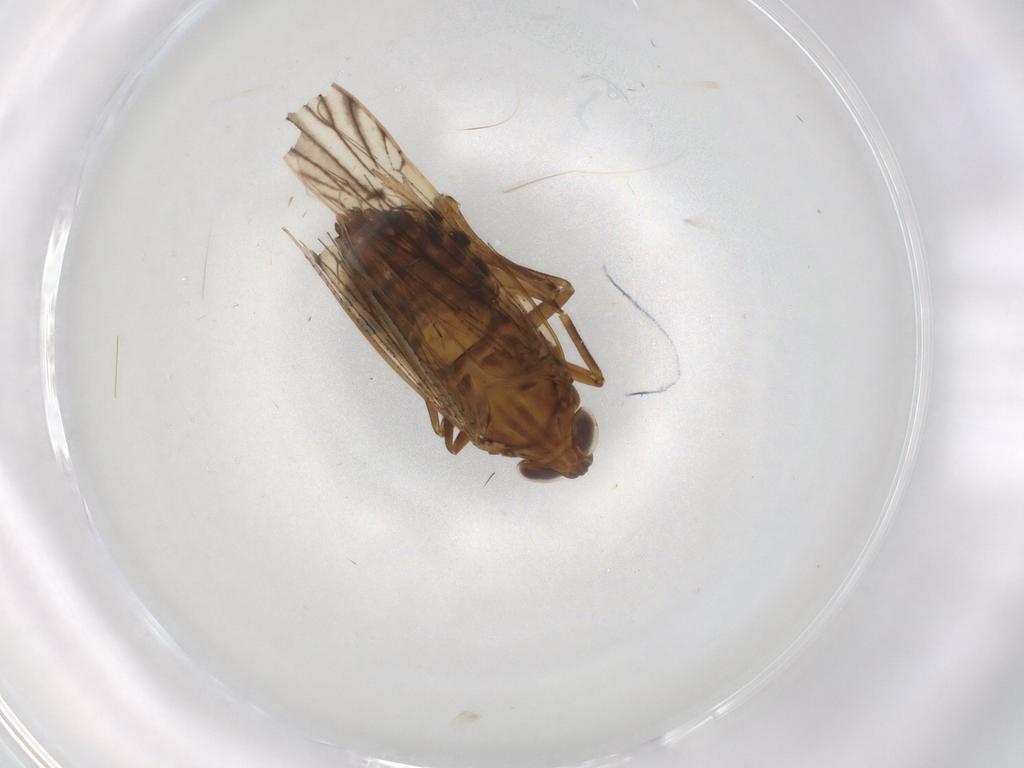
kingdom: Animalia
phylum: Arthropoda
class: Insecta
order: Hemiptera
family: Delphacidae
